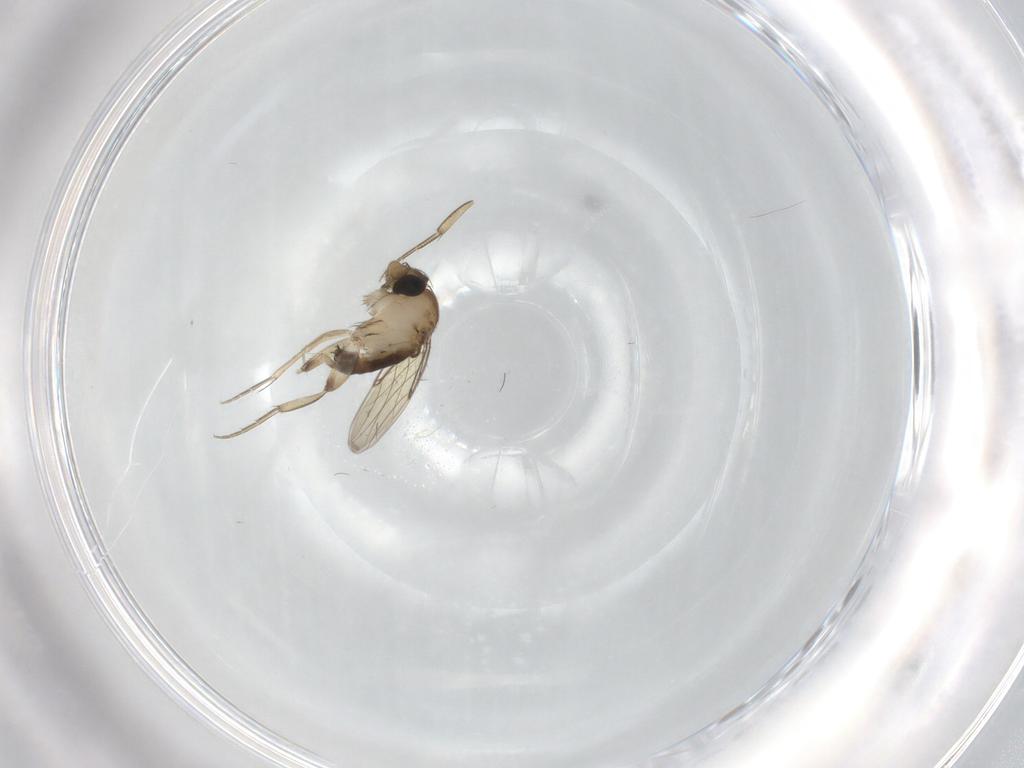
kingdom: Animalia
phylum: Arthropoda
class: Insecta
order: Diptera
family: Phoridae
